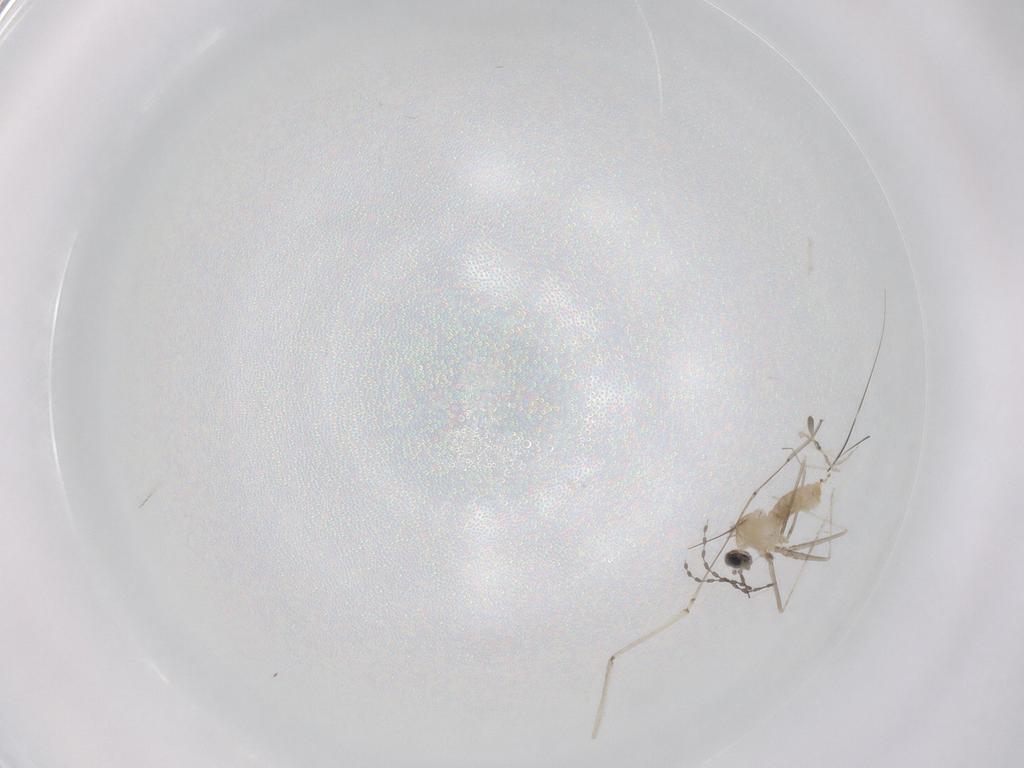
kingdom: Animalia
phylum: Arthropoda
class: Insecta
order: Diptera
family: Cecidomyiidae
